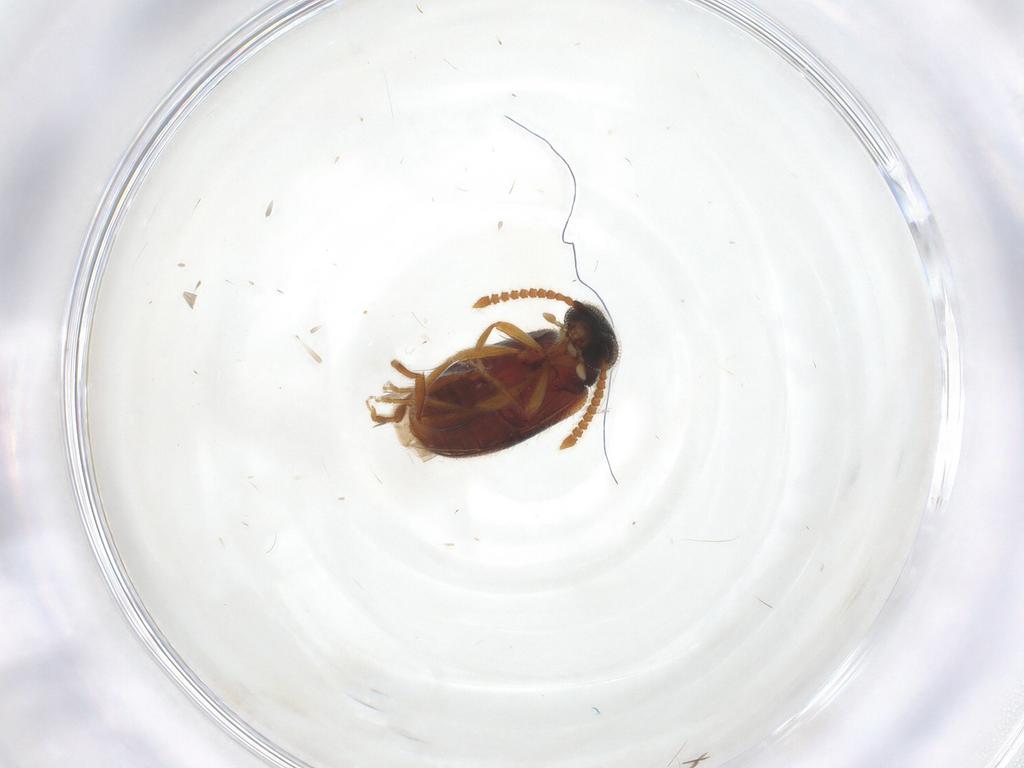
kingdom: Animalia
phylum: Arthropoda
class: Insecta
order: Coleoptera
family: Aderidae
